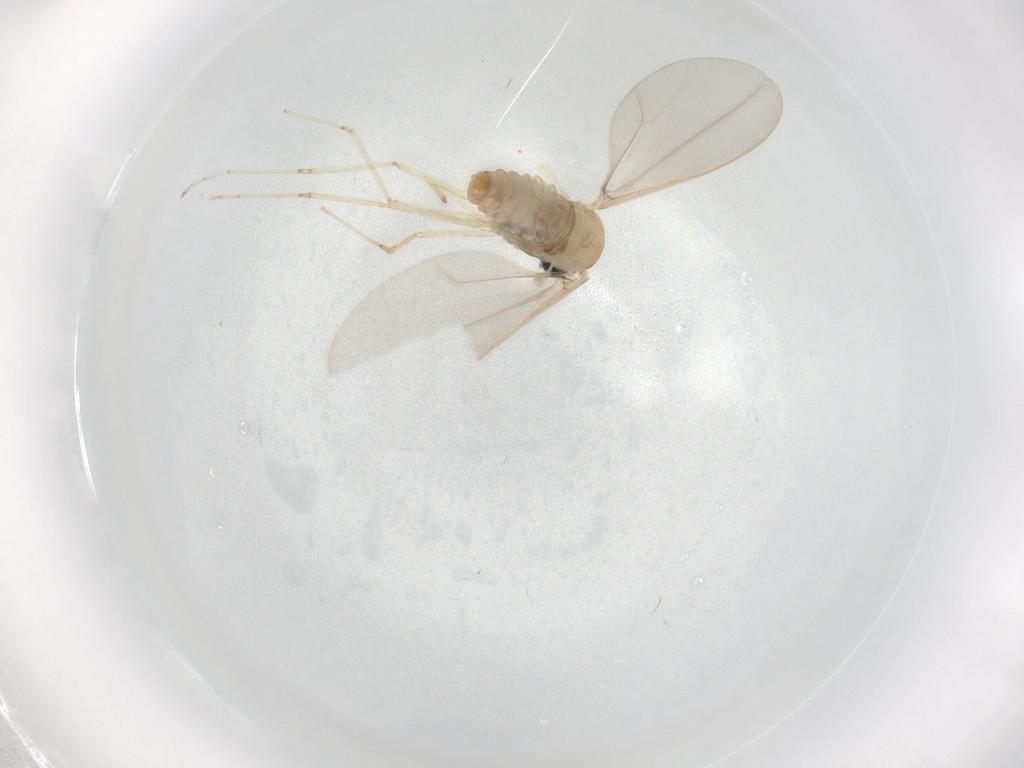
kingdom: Animalia
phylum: Arthropoda
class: Insecta
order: Diptera
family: Cecidomyiidae
